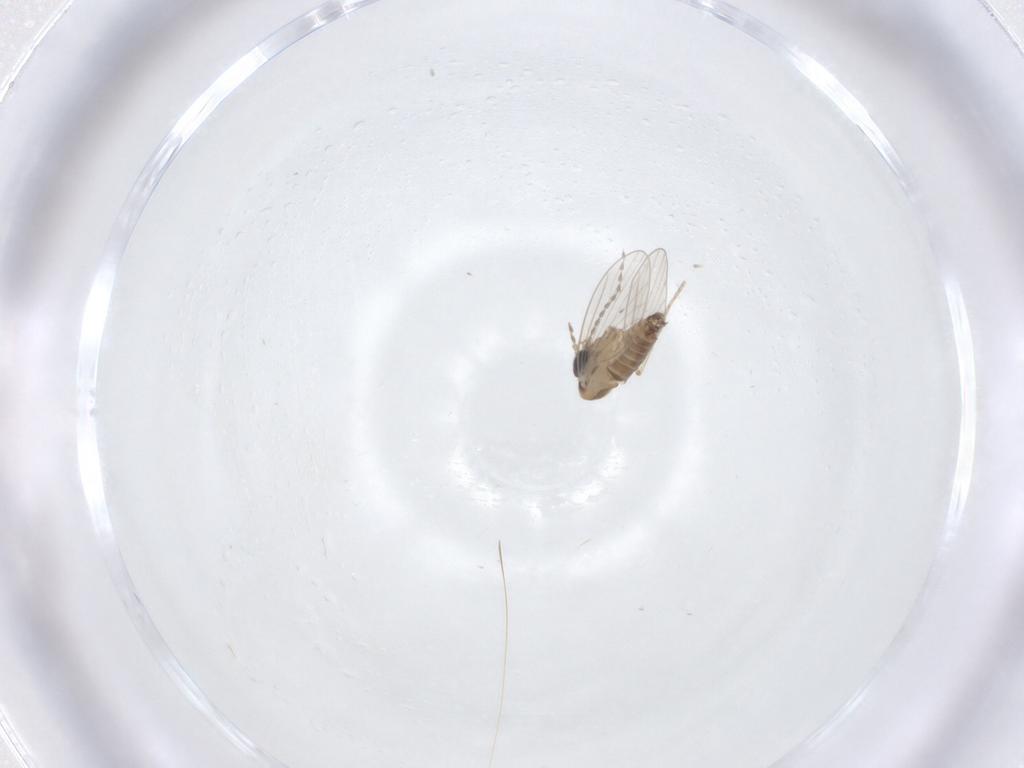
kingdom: Animalia
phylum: Arthropoda
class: Insecta
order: Diptera
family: Psychodidae
